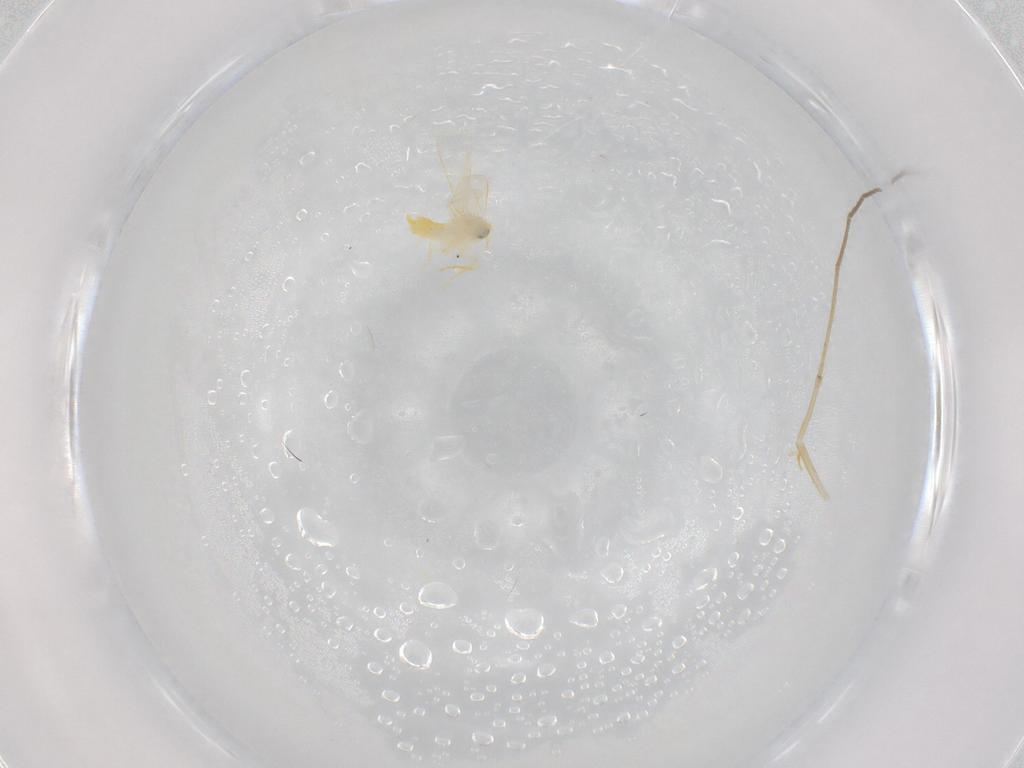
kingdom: Animalia
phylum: Arthropoda
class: Insecta
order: Hemiptera
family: Aleyrodidae
